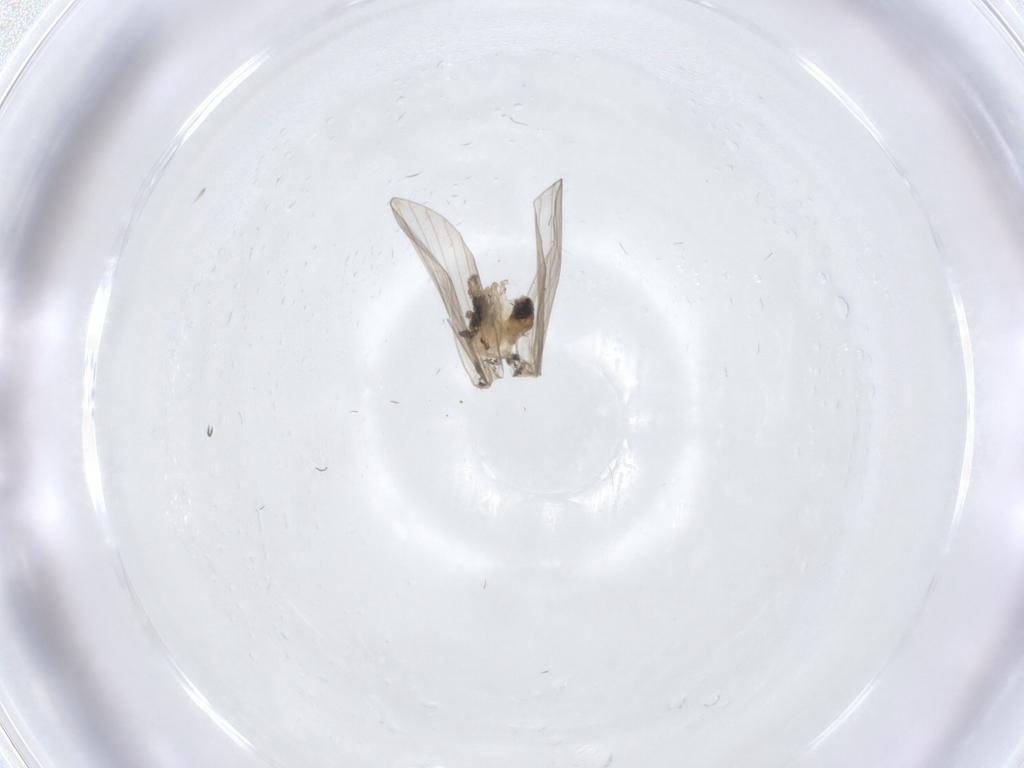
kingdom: Animalia
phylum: Arthropoda
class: Insecta
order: Diptera
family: Psychodidae
